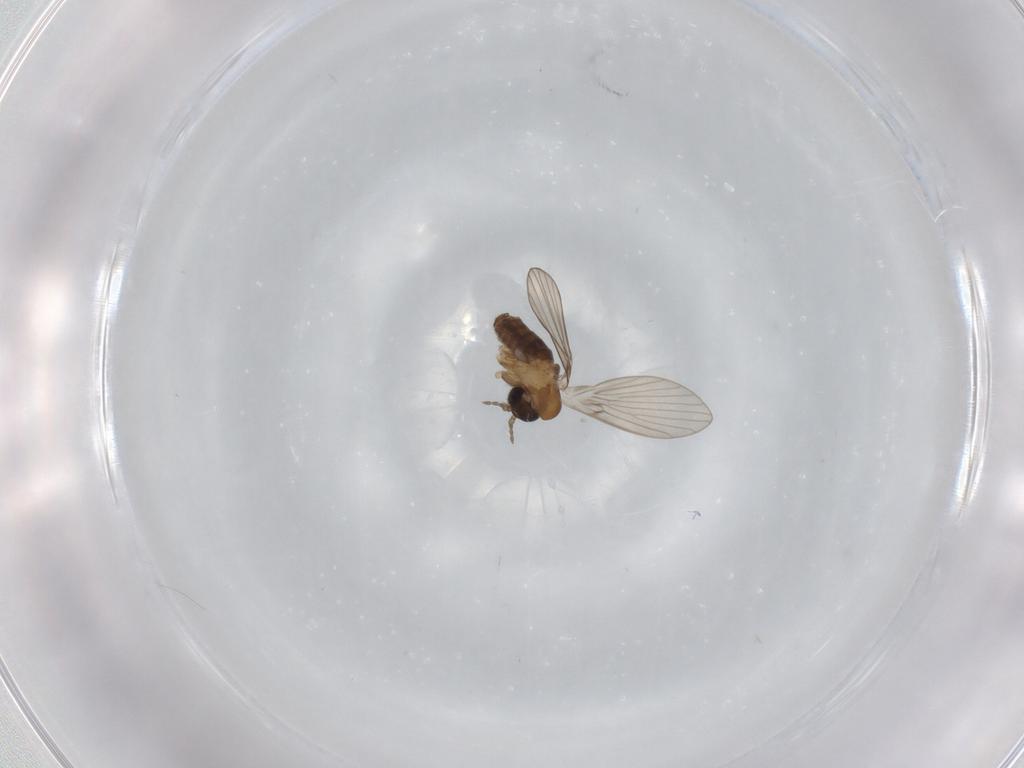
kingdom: Animalia
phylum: Arthropoda
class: Insecta
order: Diptera
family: Psychodidae
